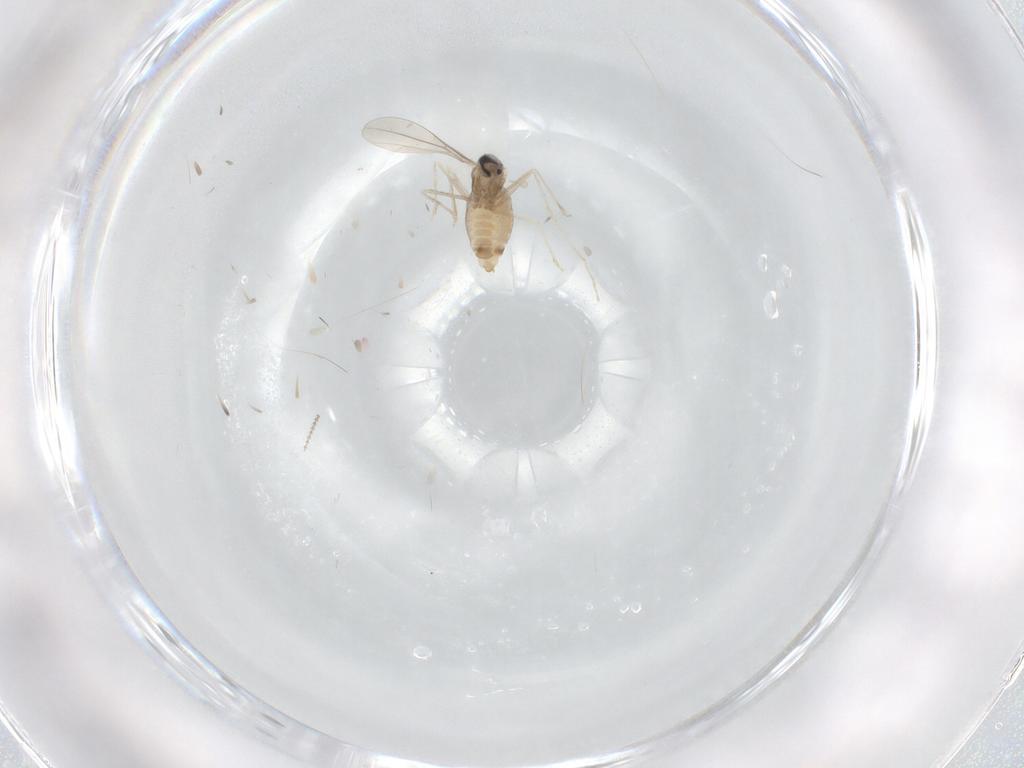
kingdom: Animalia
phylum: Arthropoda
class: Insecta
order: Diptera
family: Cecidomyiidae
